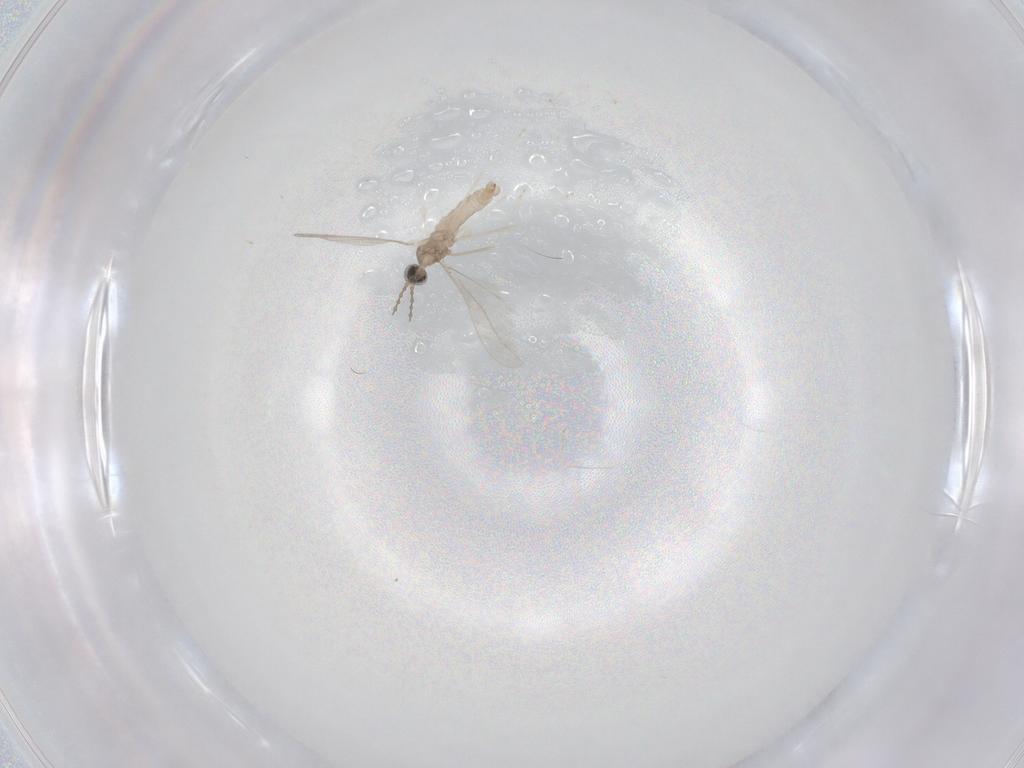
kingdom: Animalia
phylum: Arthropoda
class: Insecta
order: Diptera
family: Cecidomyiidae
